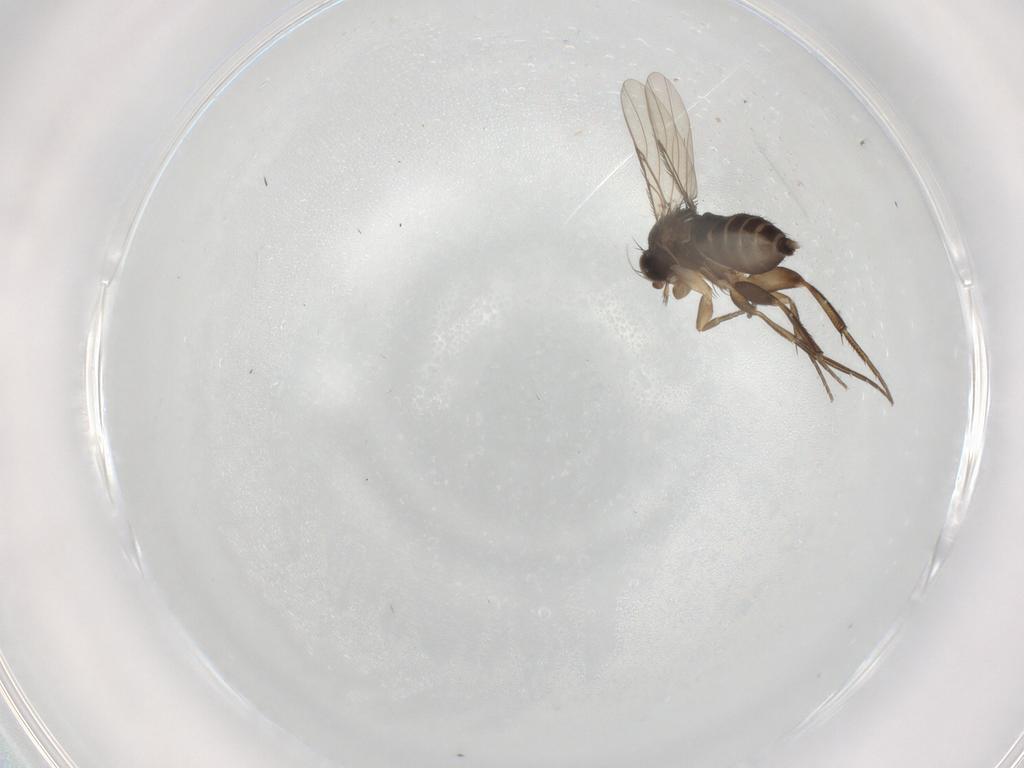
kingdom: Animalia
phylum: Arthropoda
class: Insecta
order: Diptera
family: Phoridae
